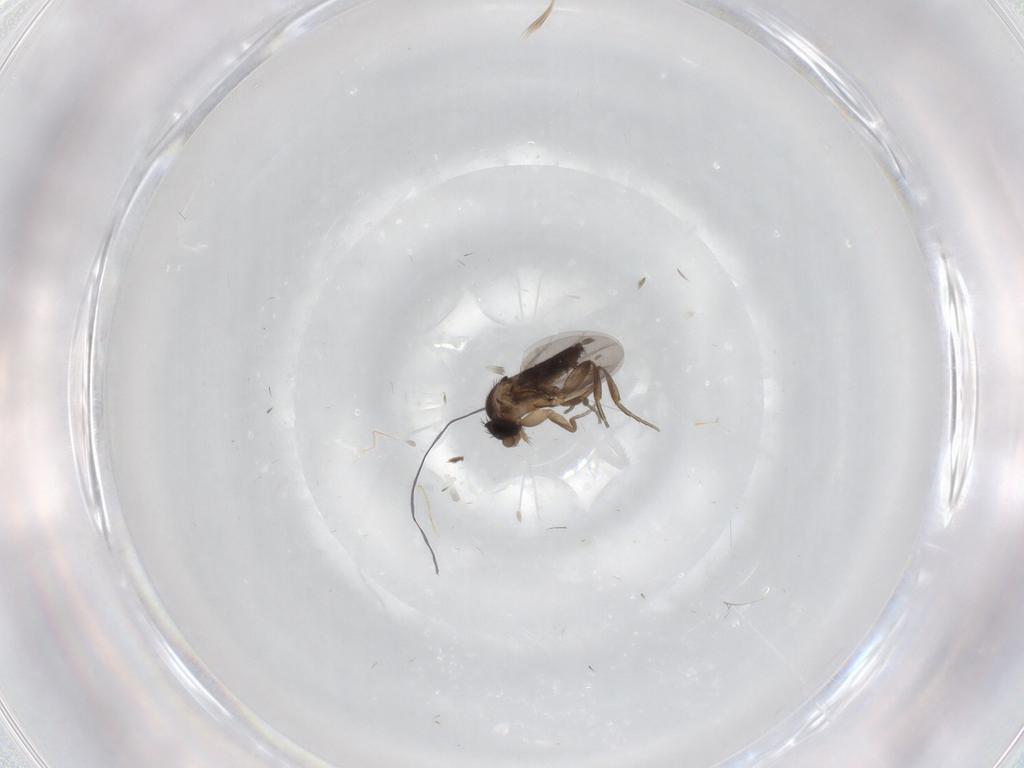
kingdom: Animalia
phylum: Arthropoda
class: Insecta
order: Diptera
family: Phoridae
